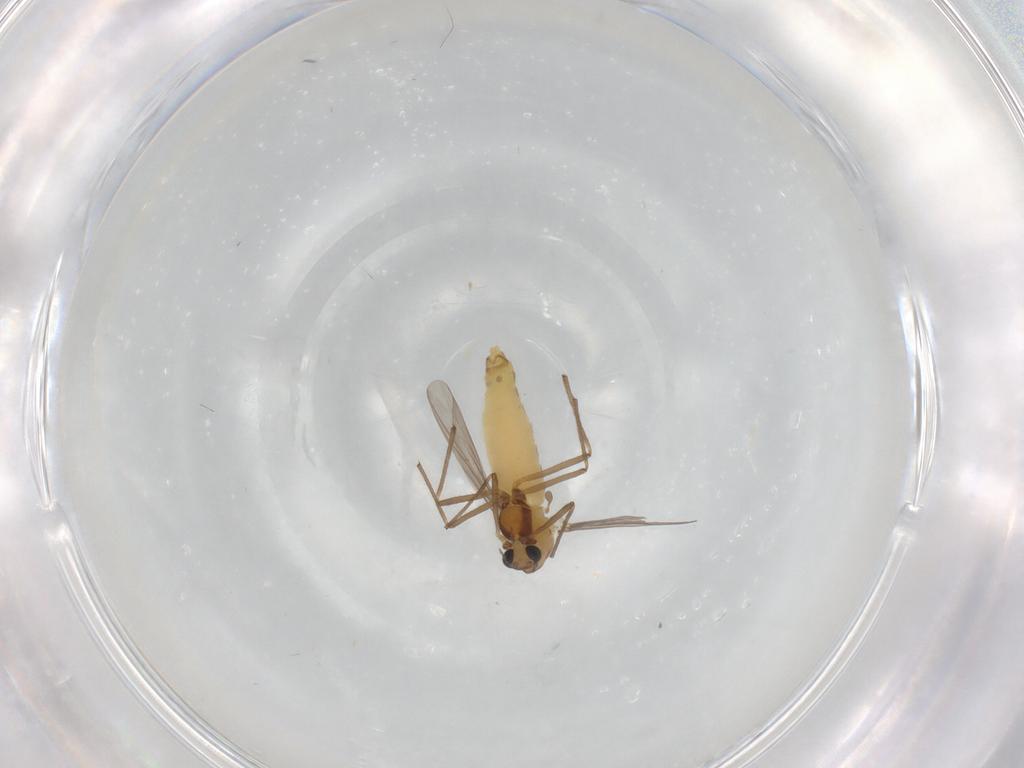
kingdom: Animalia
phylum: Arthropoda
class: Insecta
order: Diptera
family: Chironomidae
